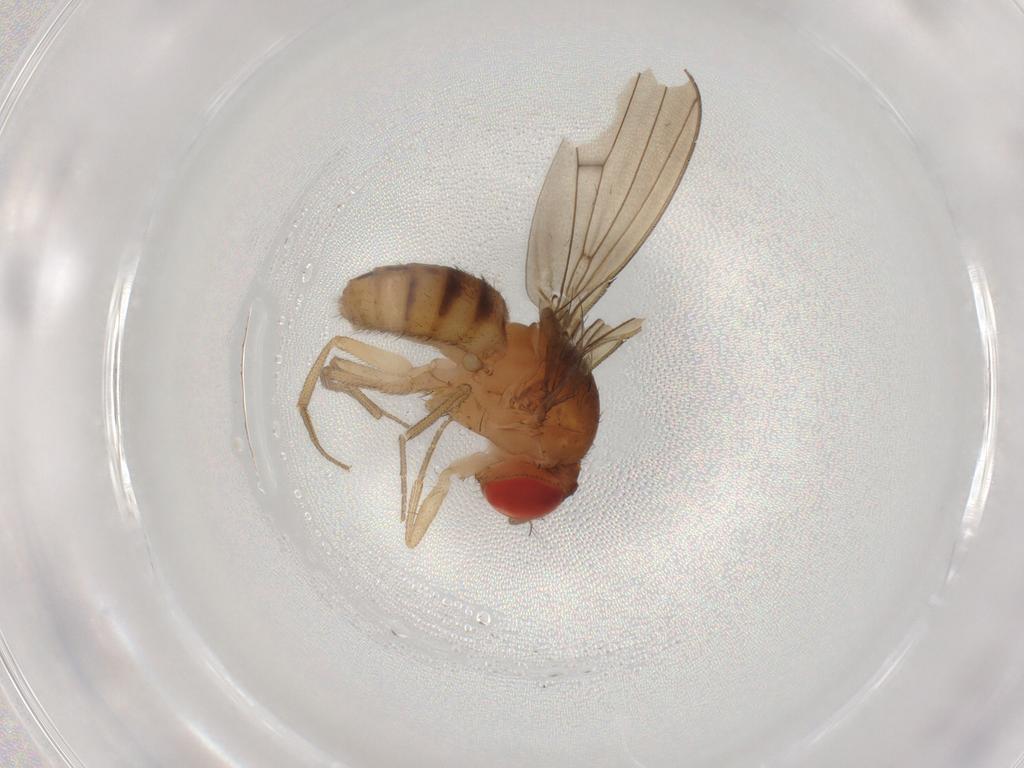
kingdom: Animalia
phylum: Arthropoda
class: Insecta
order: Diptera
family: Drosophilidae
